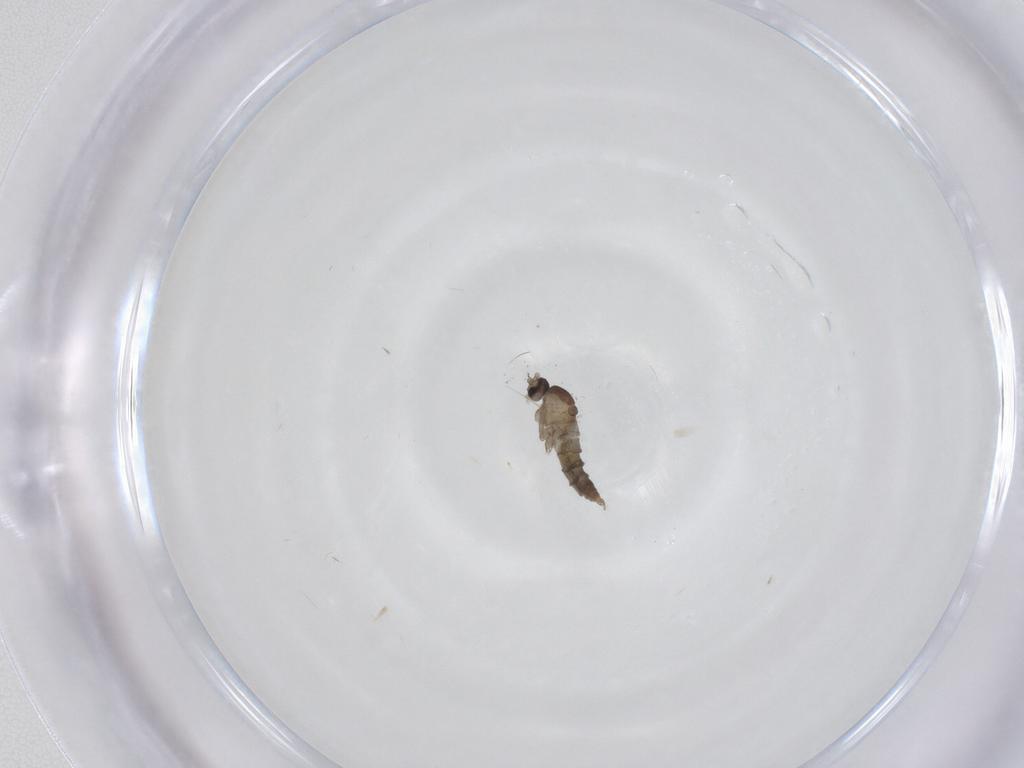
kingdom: Animalia
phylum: Arthropoda
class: Insecta
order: Diptera
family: Cecidomyiidae
